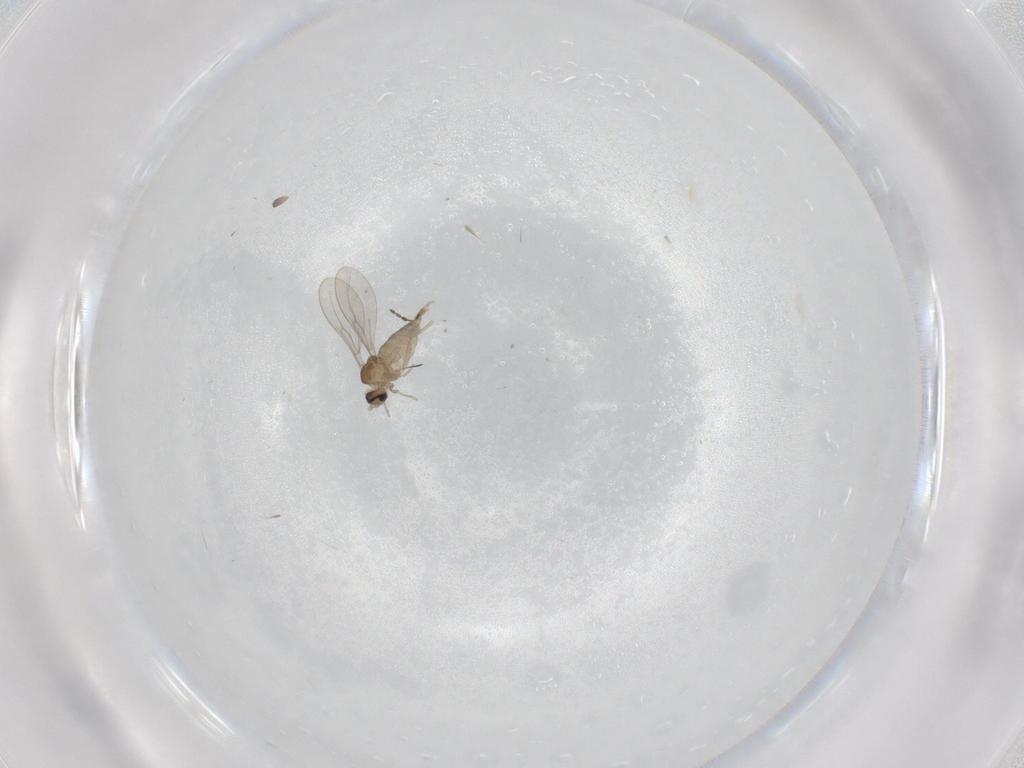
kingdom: Animalia
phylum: Arthropoda
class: Insecta
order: Diptera
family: Cecidomyiidae
